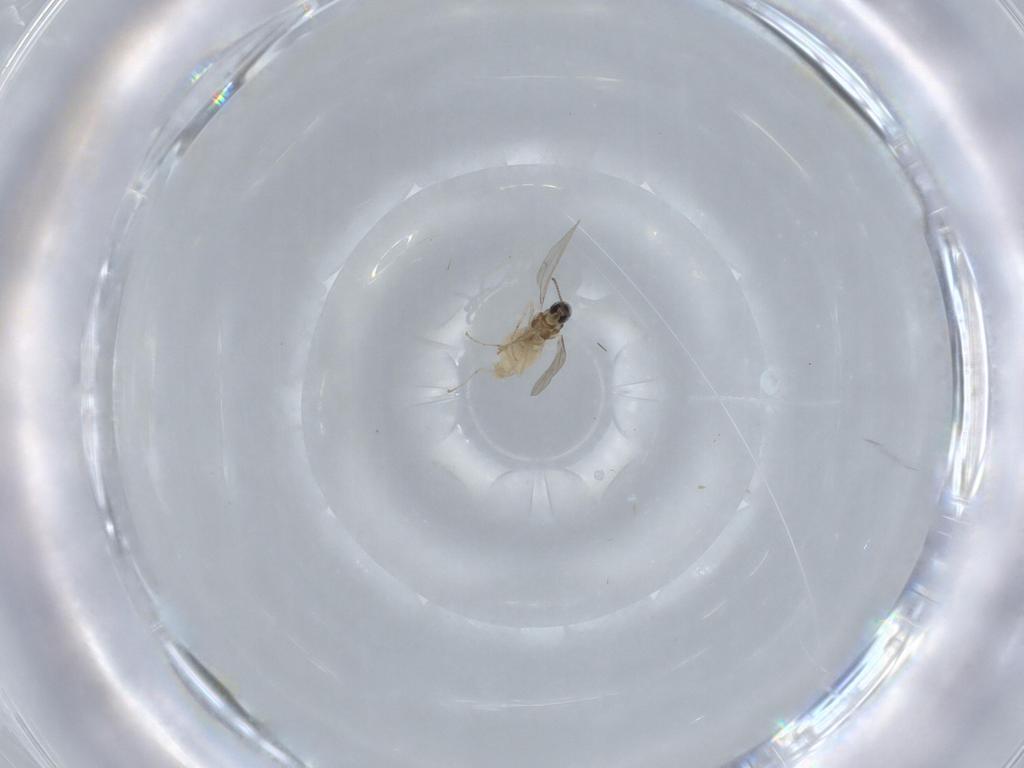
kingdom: Animalia
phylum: Arthropoda
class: Insecta
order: Diptera
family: Cecidomyiidae
